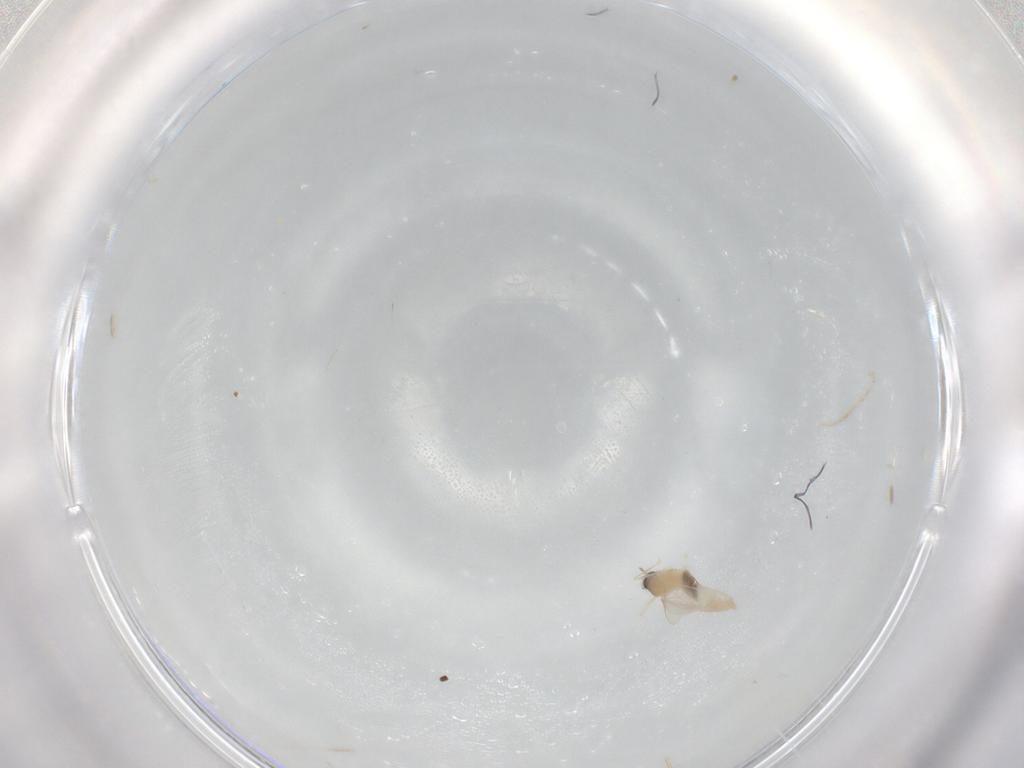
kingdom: Animalia
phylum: Arthropoda
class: Insecta
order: Diptera
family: Cecidomyiidae
